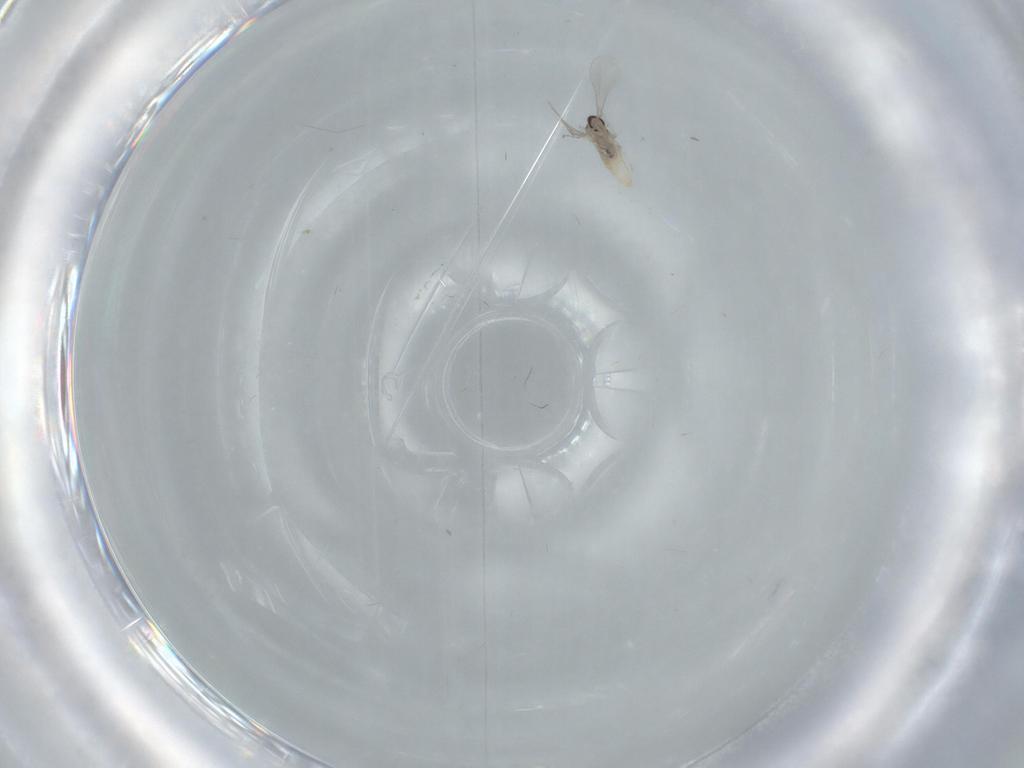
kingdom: Animalia
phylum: Arthropoda
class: Insecta
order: Diptera
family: Cecidomyiidae
